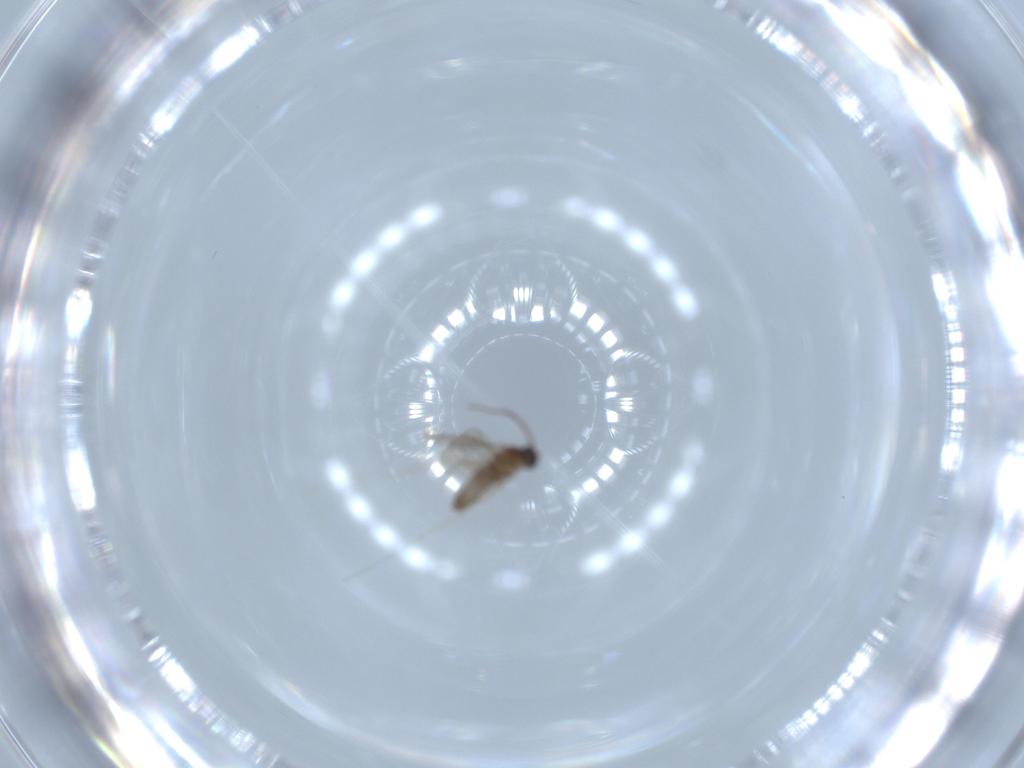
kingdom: Animalia
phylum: Arthropoda
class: Insecta
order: Diptera
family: Cecidomyiidae
